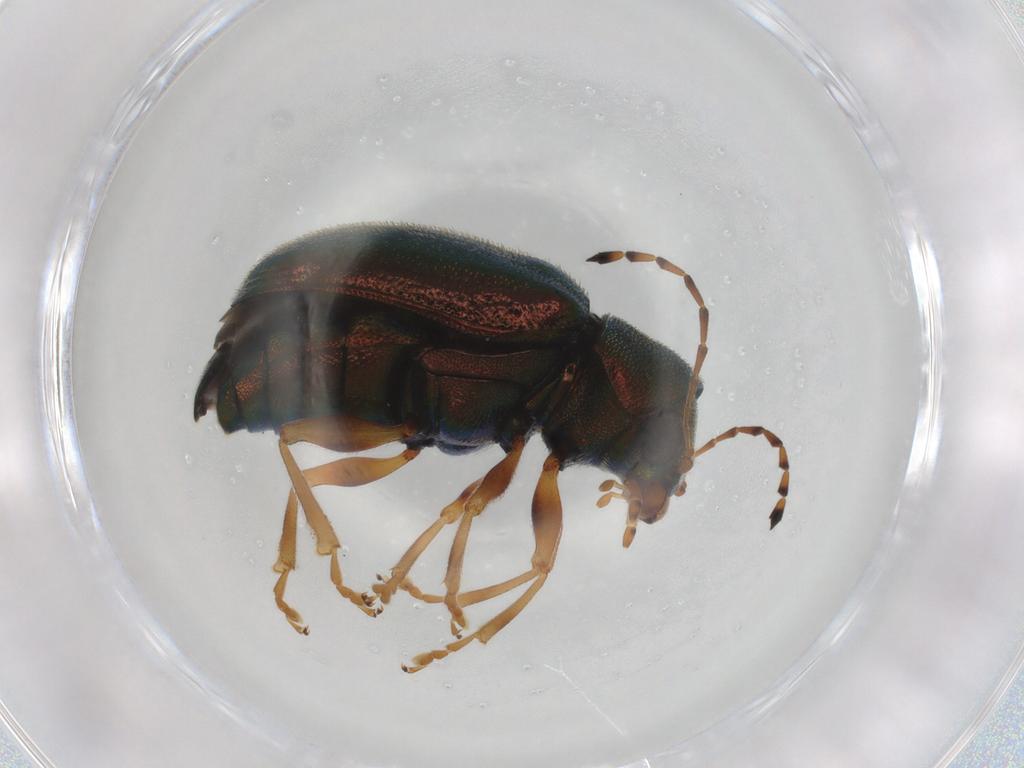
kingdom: Animalia
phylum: Arthropoda
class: Insecta
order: Coleoptera
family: Chrysomelidae
